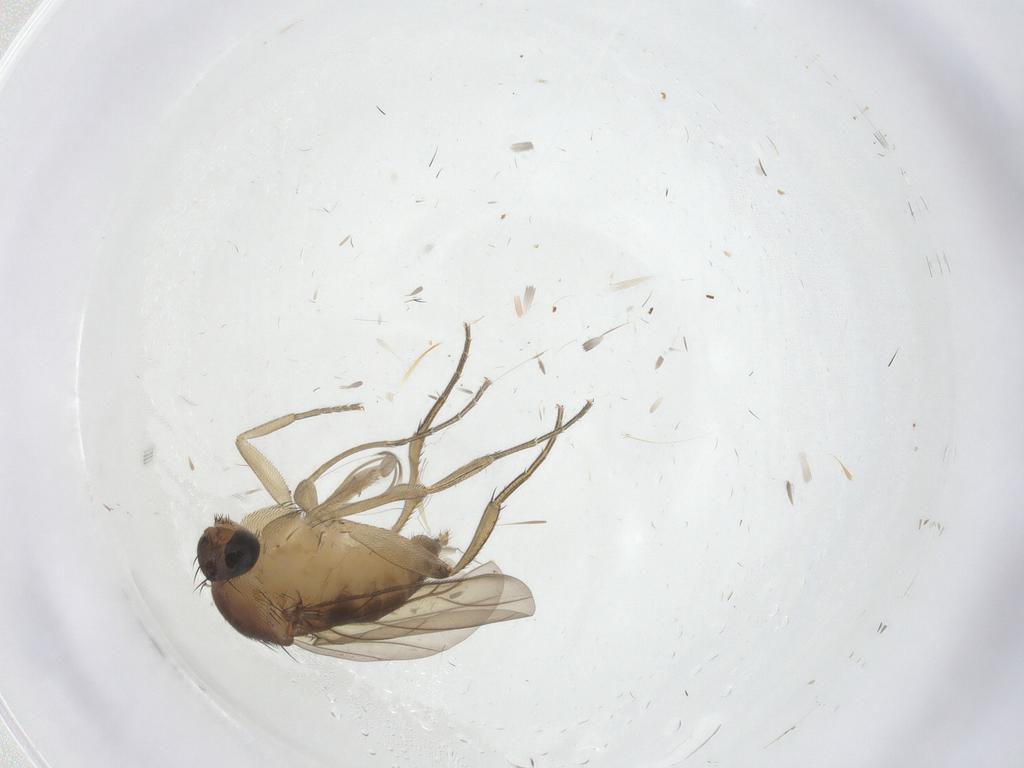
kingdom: Animalia
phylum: Arthropoda
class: Insecta
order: Diptera
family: Phoridae
